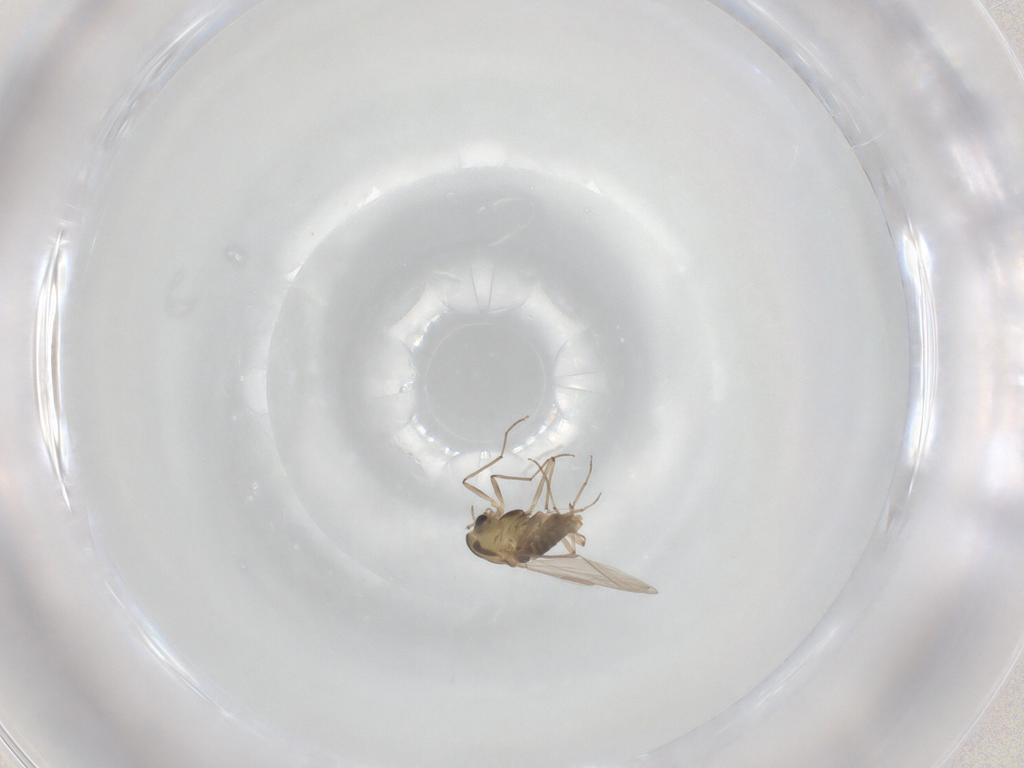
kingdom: Animalia
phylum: Arthropoda
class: Insecta
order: Diptera
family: Chironomidae
